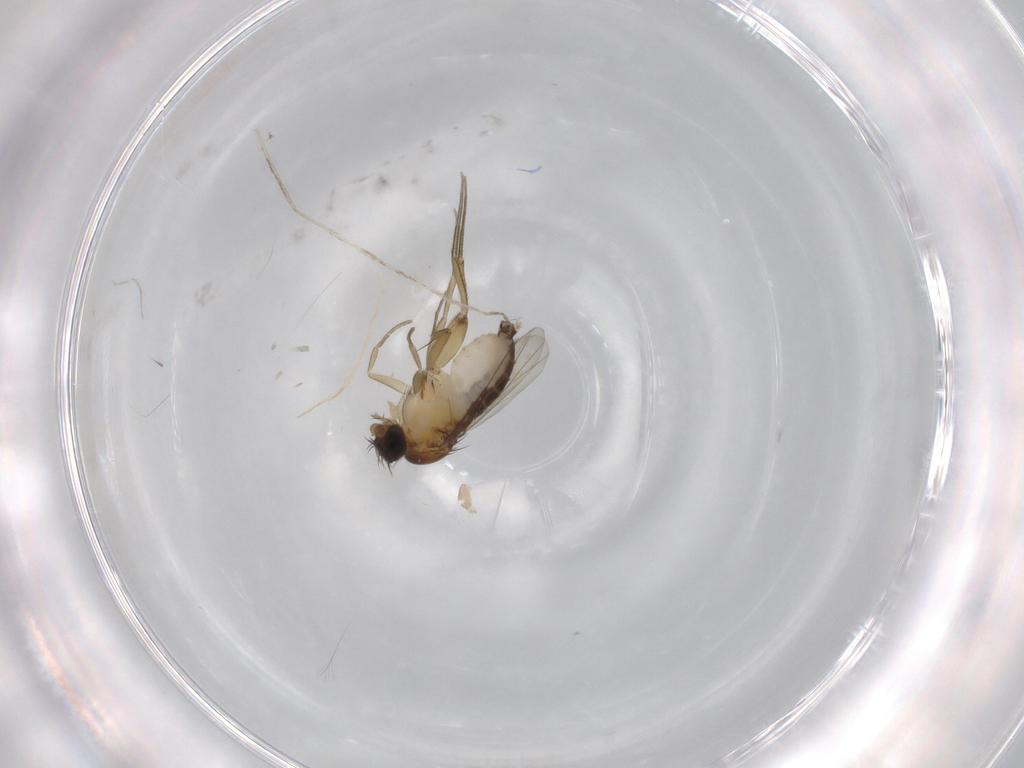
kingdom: Animalia
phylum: Arthropoda
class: Insecta
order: Diptera
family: Phoridae
